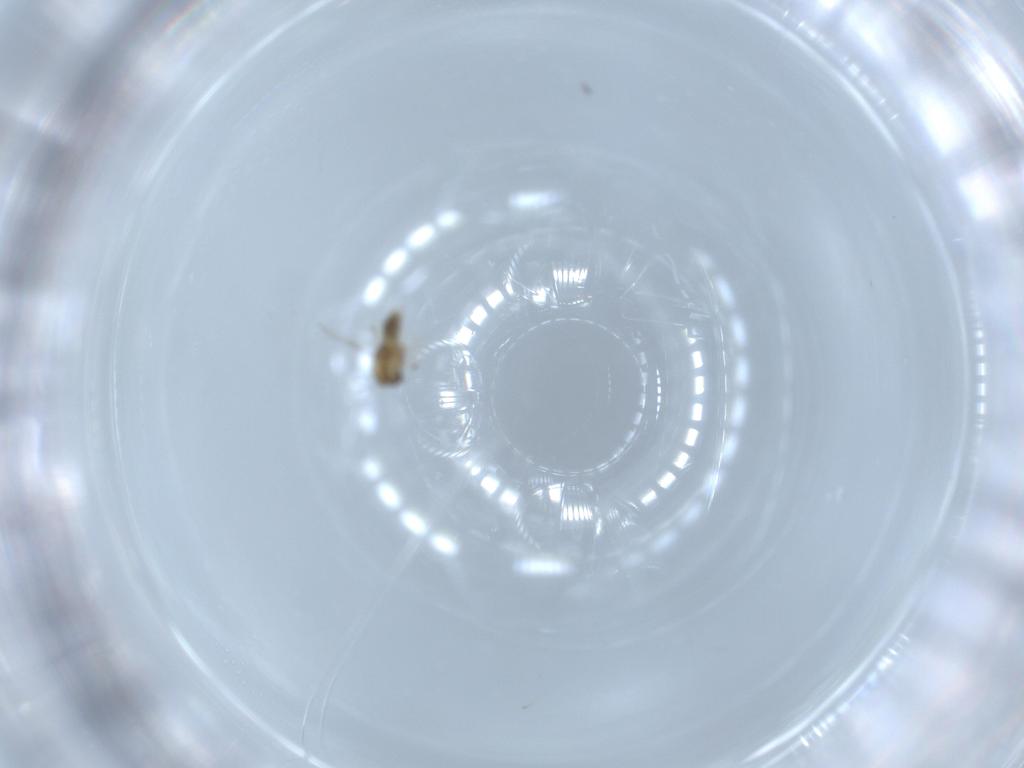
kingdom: Animalia
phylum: Arthropoda
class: Insecta
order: Diptera
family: Chironomidae
